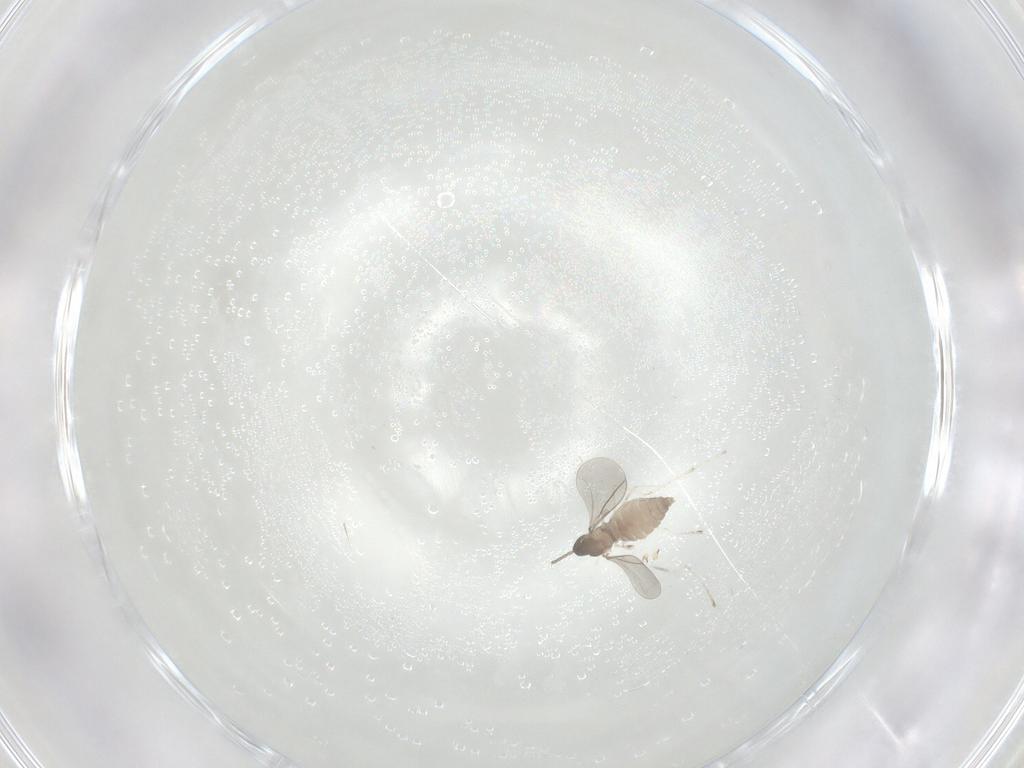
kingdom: Animalia
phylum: Arthropoda
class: Insecta
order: Diptera
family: Cecidomyiidae
